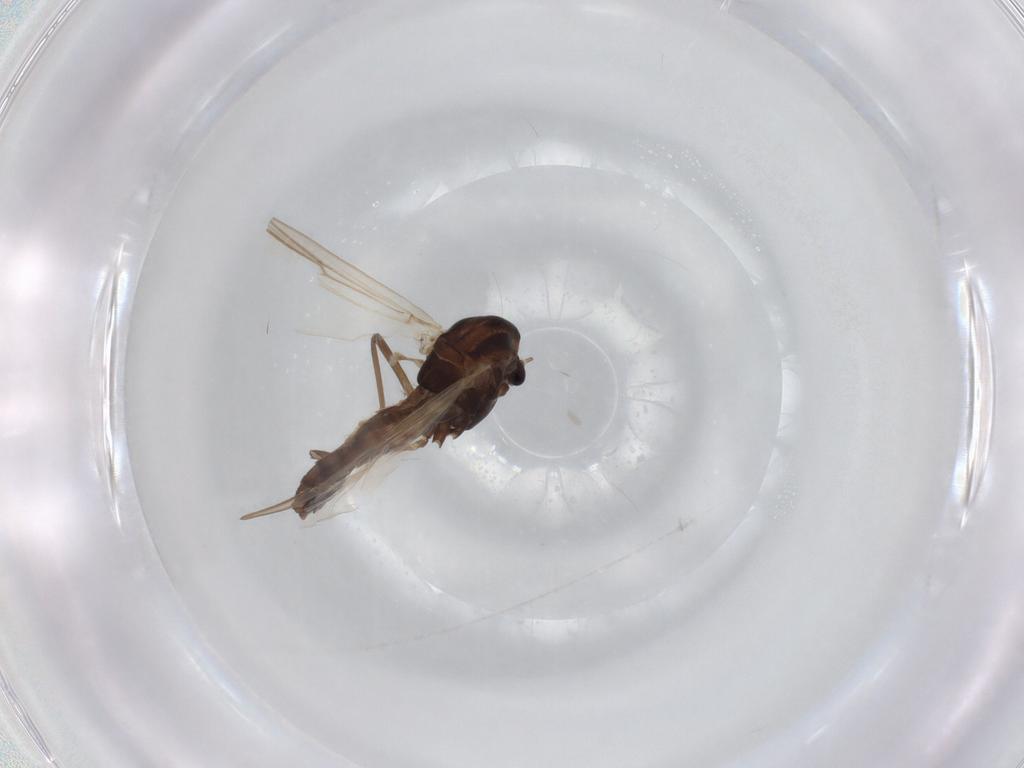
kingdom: Animalia
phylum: Arthropoda
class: Insecta
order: Diptera
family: Chironomidae
